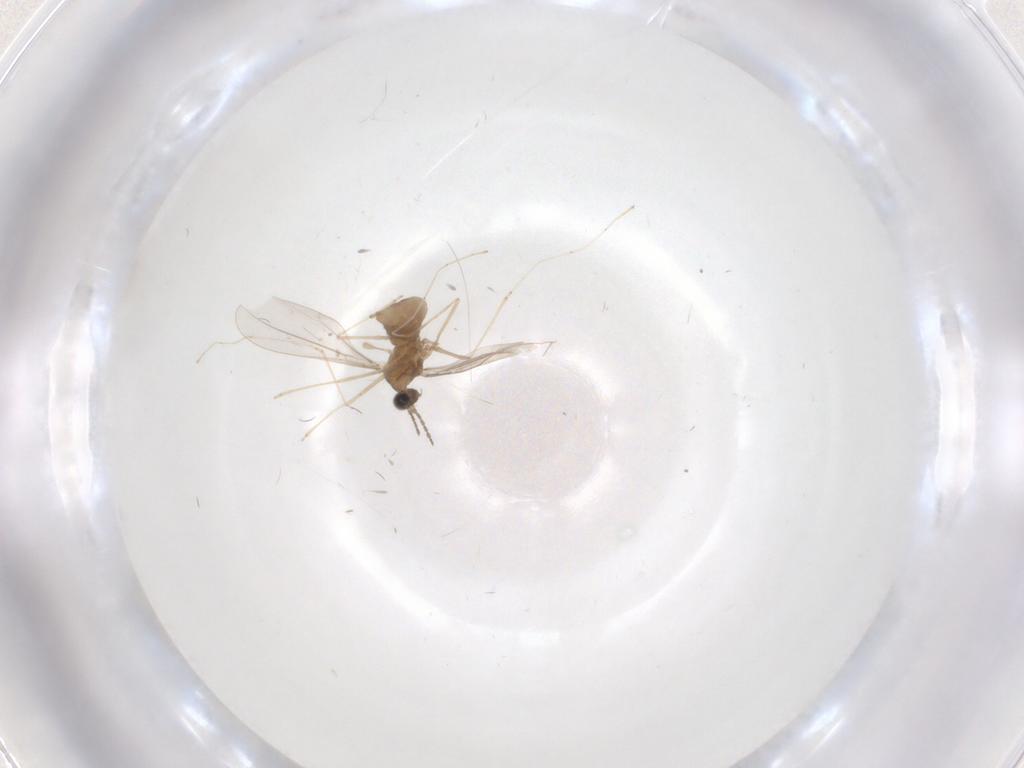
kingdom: Animalia
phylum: Arthropoda
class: Insecta
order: Diptera
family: Cecidomyiidae
